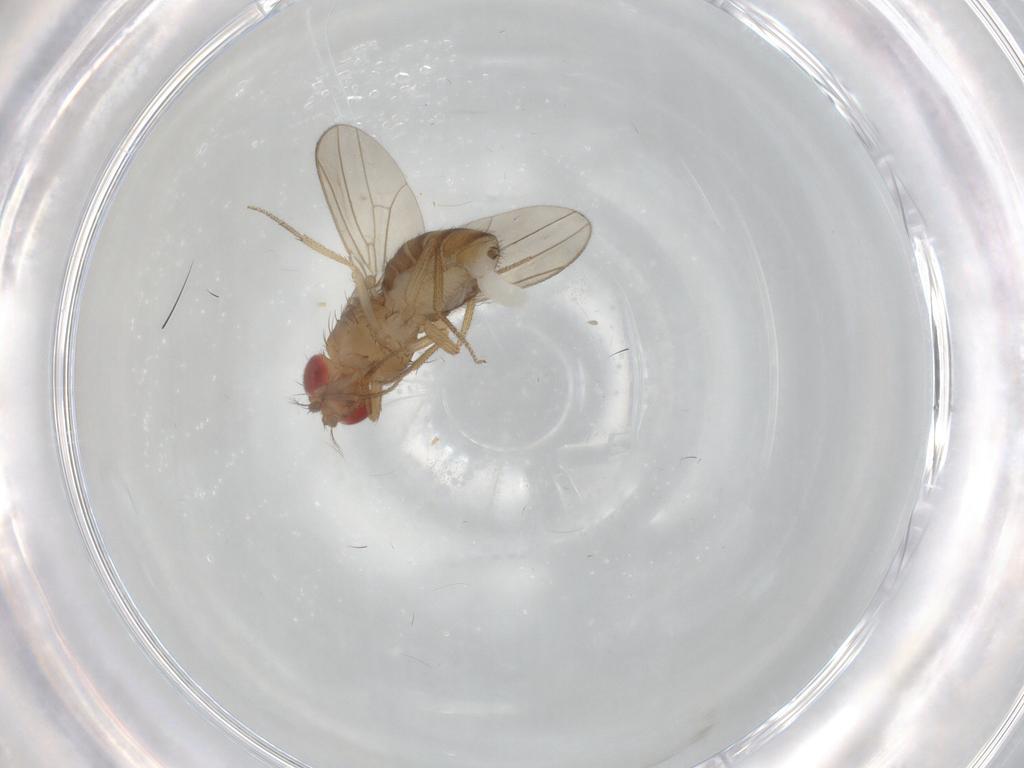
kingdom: Animalia
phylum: Arthropoda
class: Insecta
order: Diptera
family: Drosophilidae
